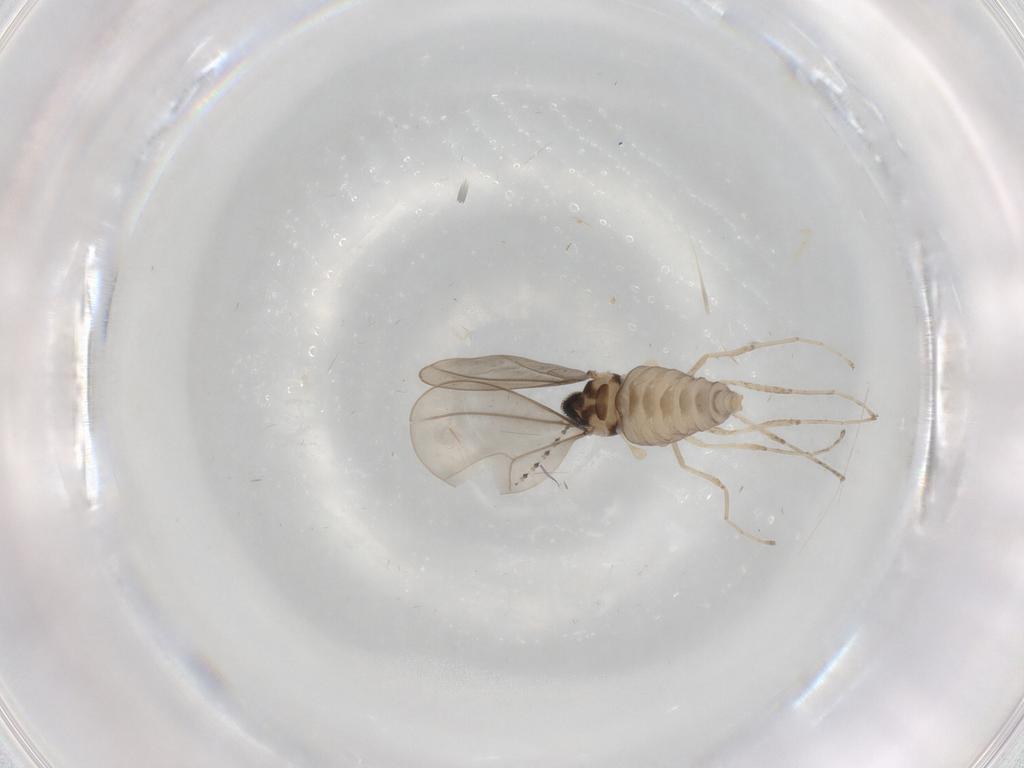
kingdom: Animalia
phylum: Arthropoda
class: Insecta
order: Diptera
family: Cecidomyiidae
